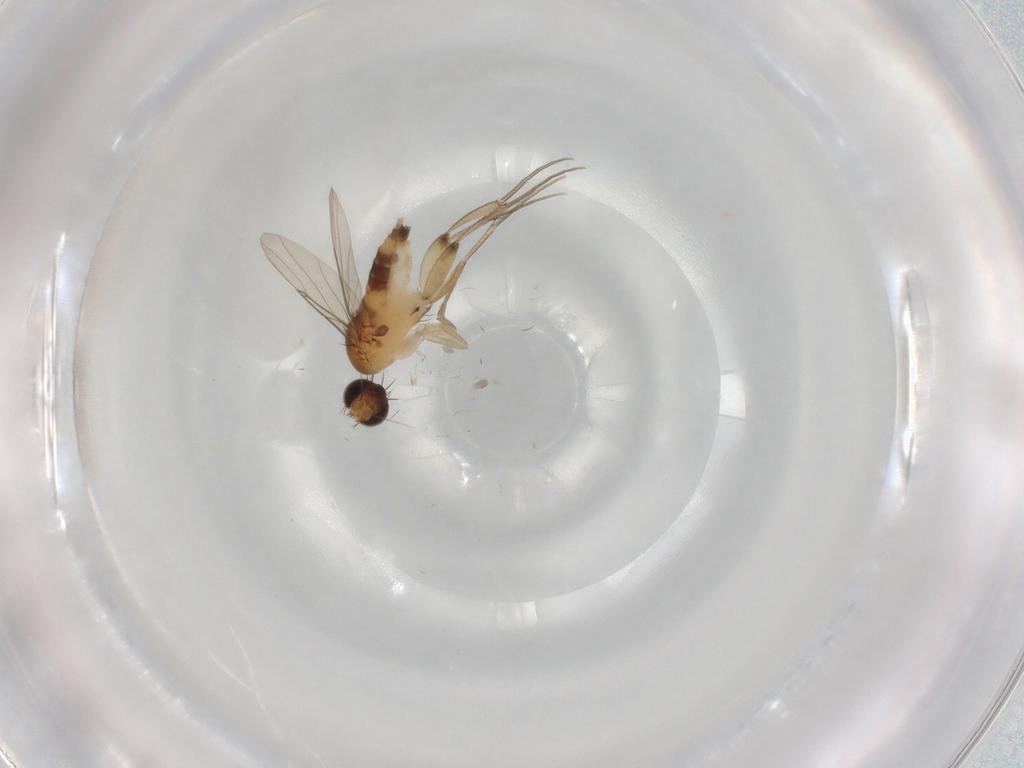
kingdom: Animalia
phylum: Arthropoda
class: Insecta
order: Diptera
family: Phoridae
